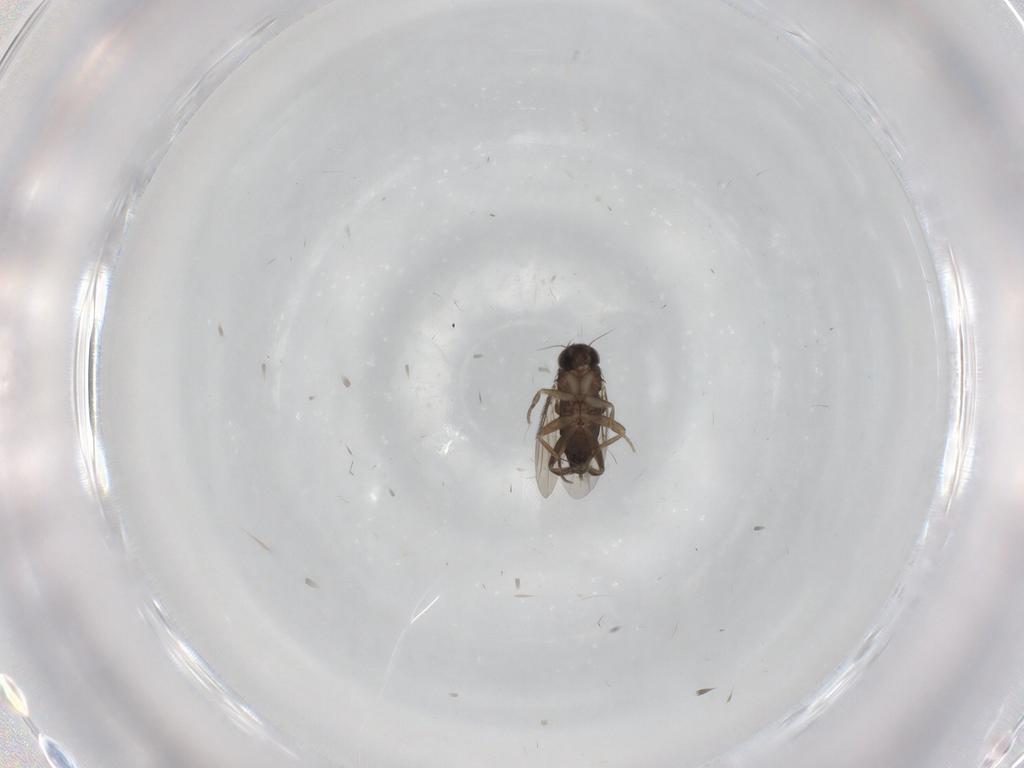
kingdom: Animalia
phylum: Arthropoda
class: Insecta
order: Diptera
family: Phoridae
